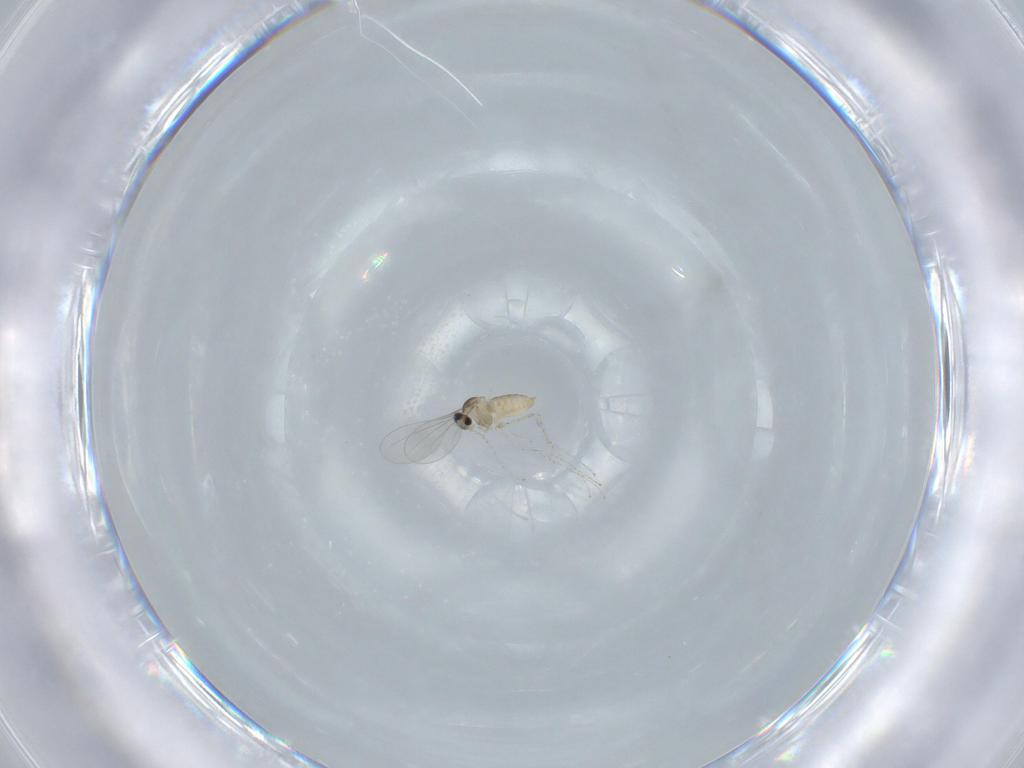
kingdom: Animalia
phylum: Arthropoda
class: Insecta
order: Diptera
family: Cecidomyiidae
